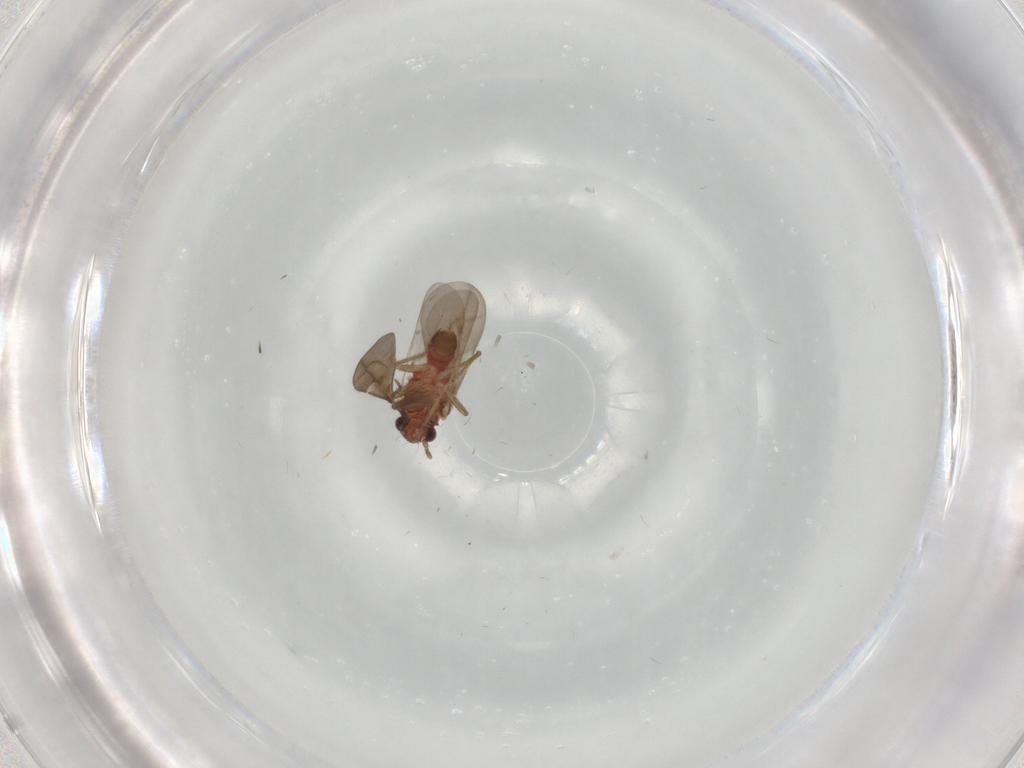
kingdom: Animalia
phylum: Arthropoda
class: Insecta
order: Hemiptera
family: Ceratocombidae
